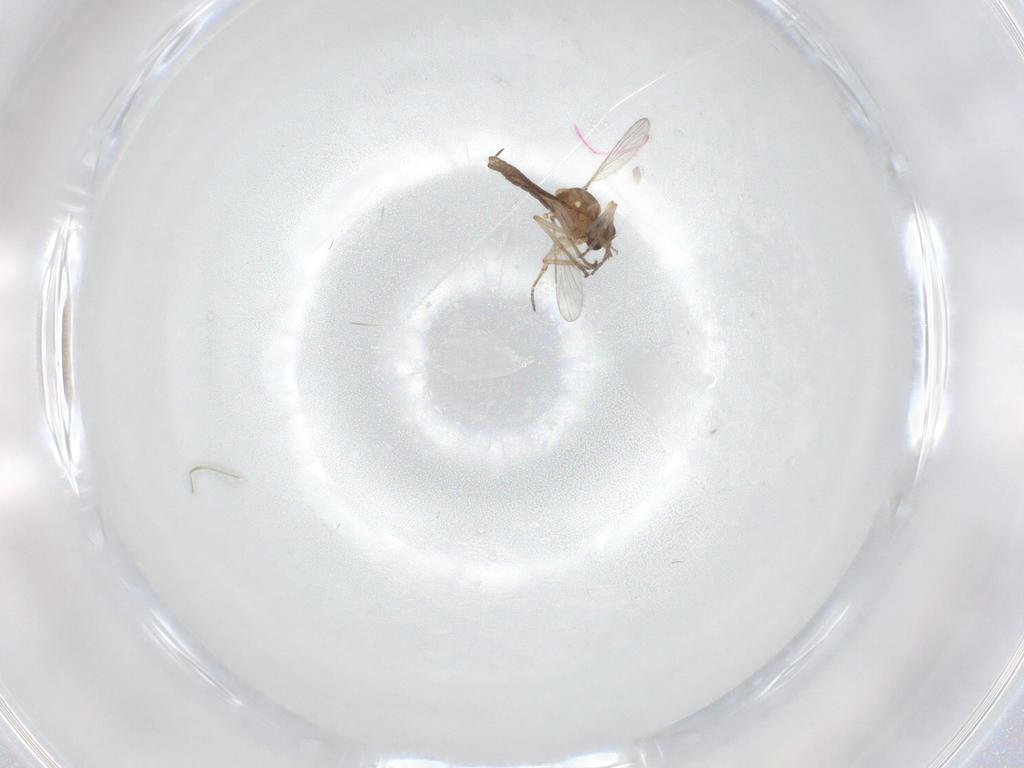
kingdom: Animalia
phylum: Arthropoda
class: Insecta
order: Diptera
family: Ceratopogonidae
